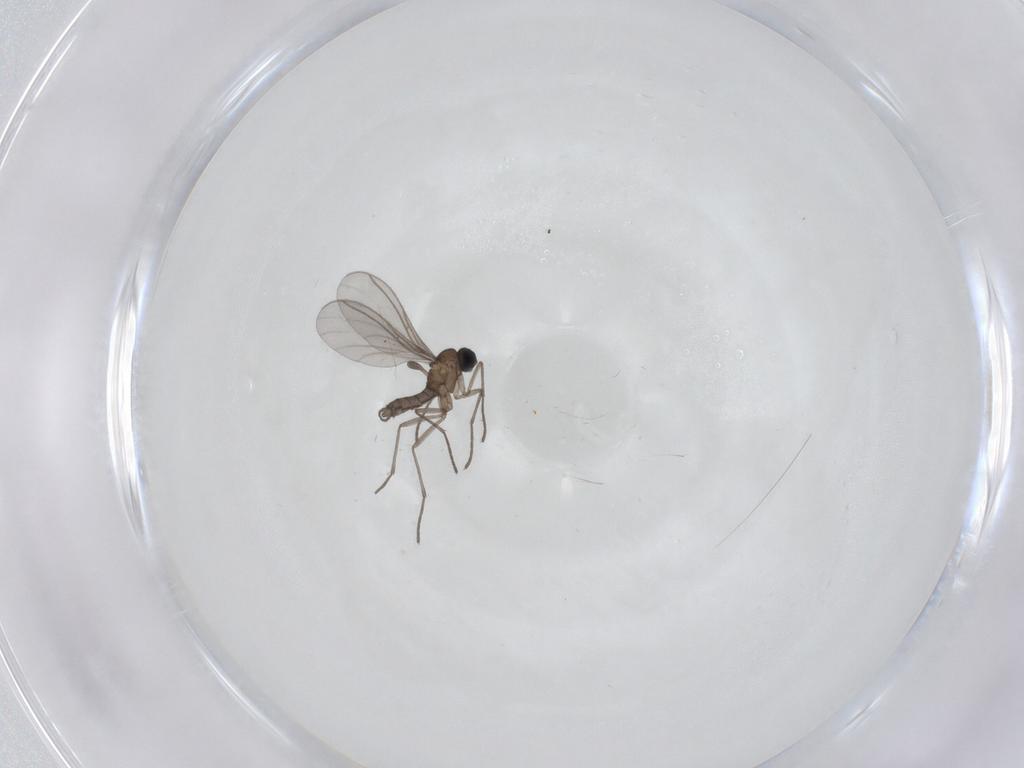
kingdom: Animalia
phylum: Arthropoda
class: Insecta
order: Diptera
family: Sciaridae
